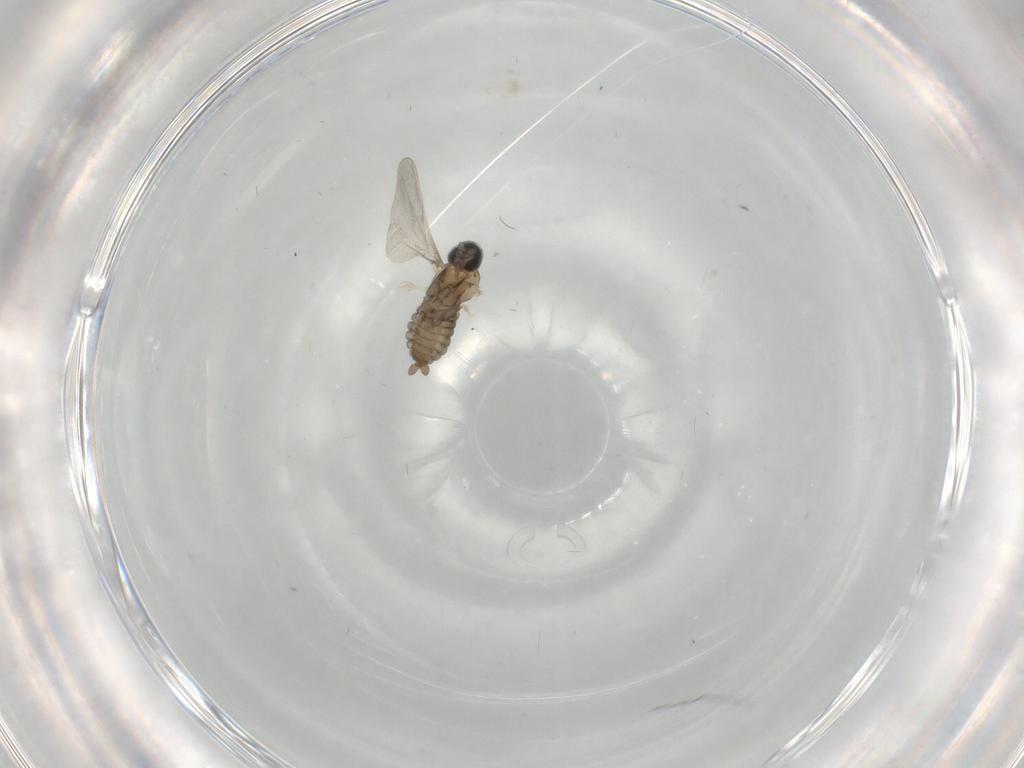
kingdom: Animalia
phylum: Arthropoda
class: Insecta
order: Diptera
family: Cecidomyiidae
